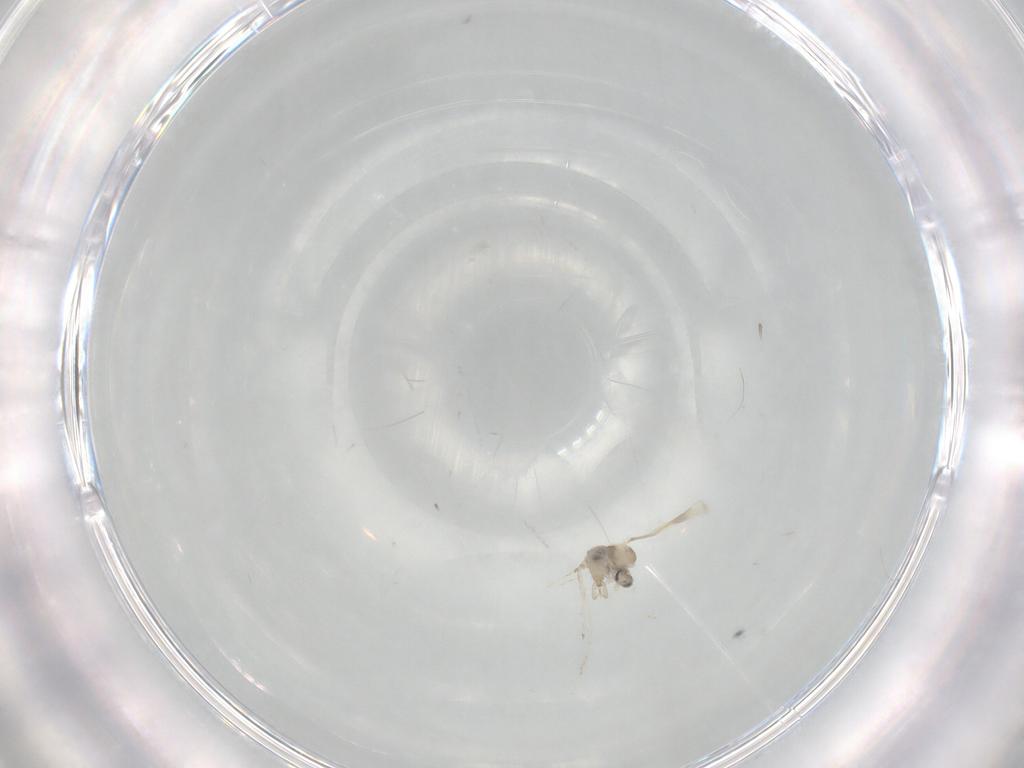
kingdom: Animalia
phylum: Arthropoda
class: Insecta
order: Diptera
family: Cecidomyiidae
